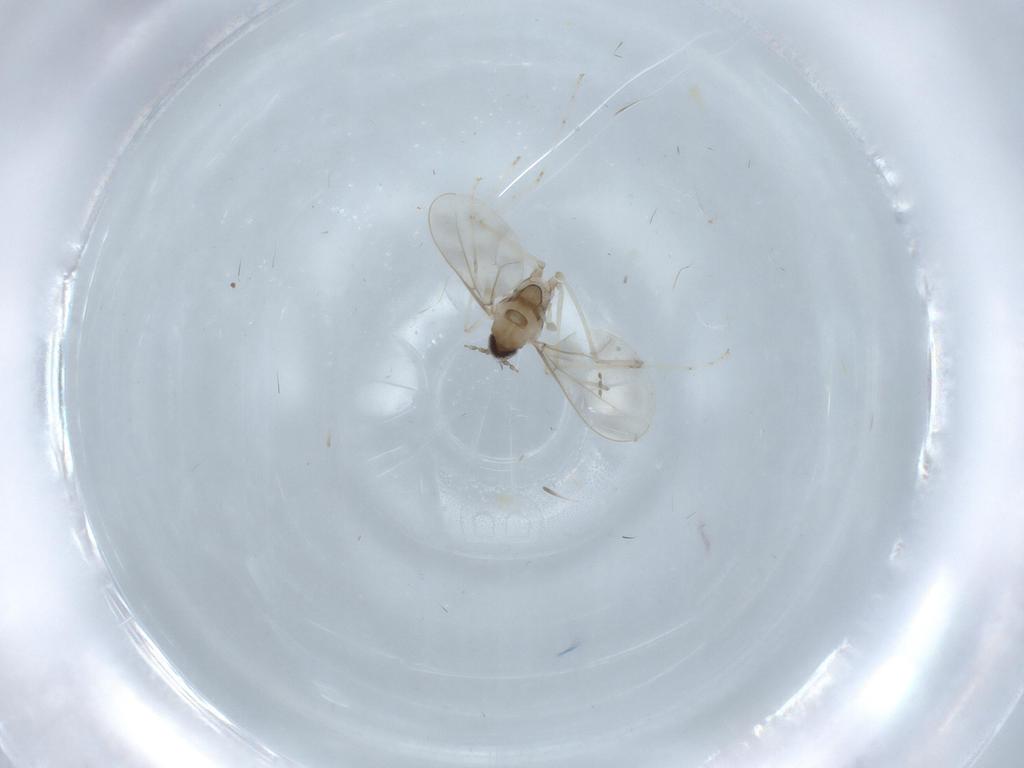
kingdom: Animalia
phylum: Arthropoda
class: Insecta
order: Diptera
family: Cecidomyiidae
